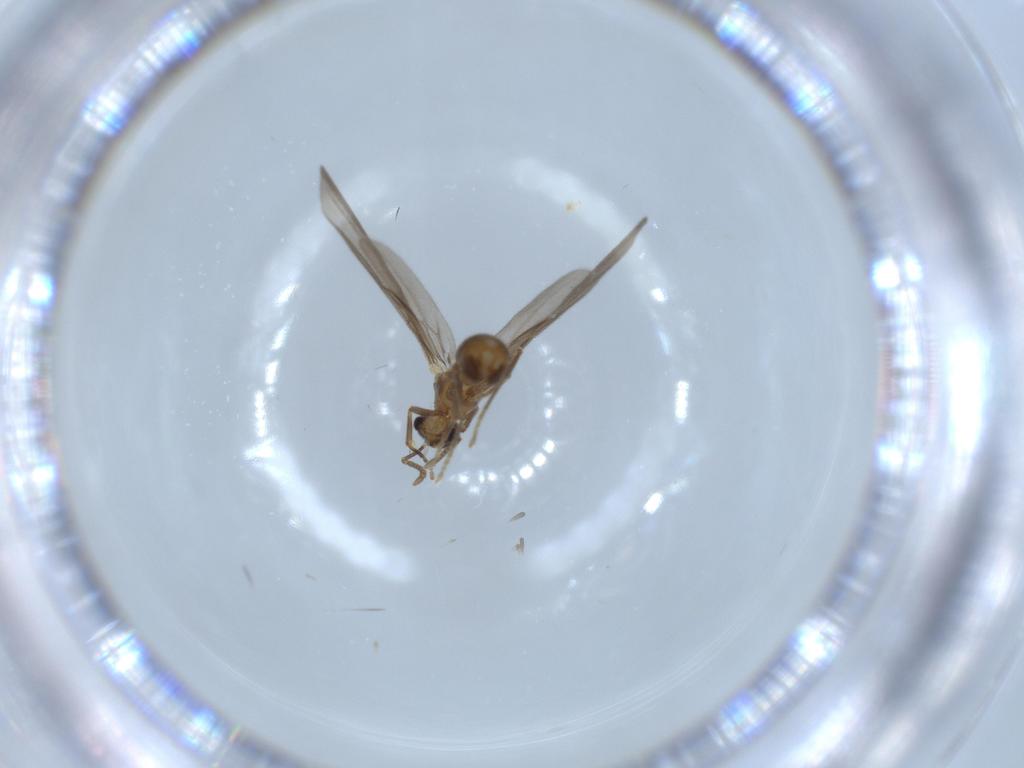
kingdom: Animalia
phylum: Arthropoda
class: Insecta
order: Hymenoptera
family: Formicidae
